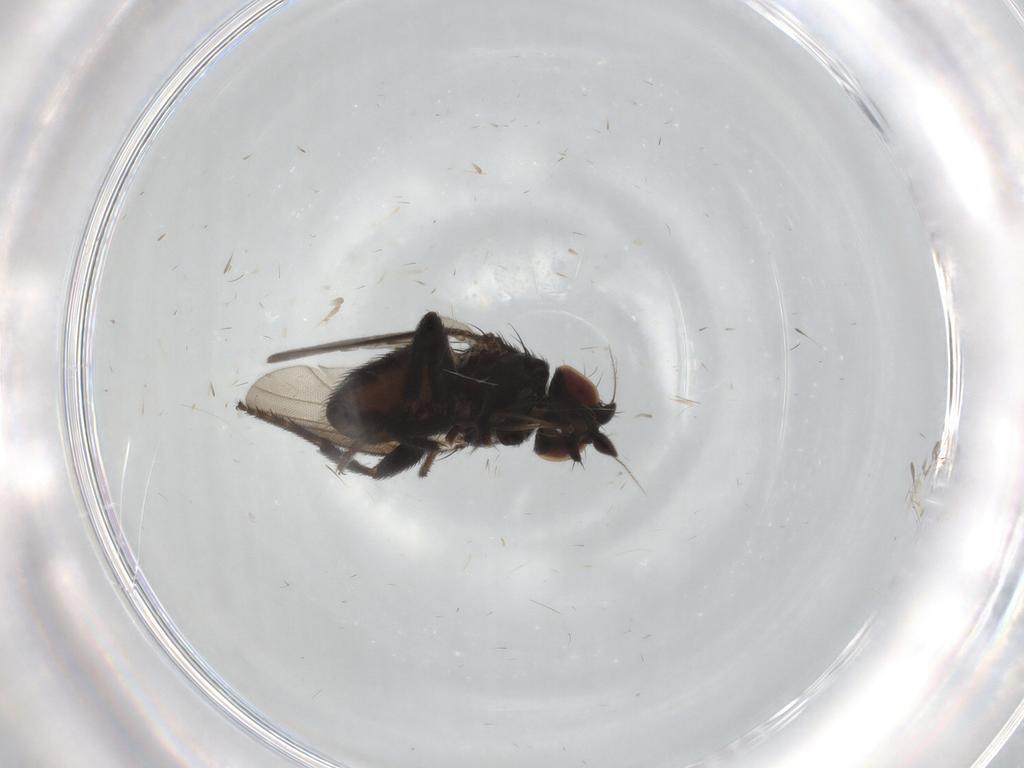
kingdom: Animalia
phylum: Arthropoda
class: Insecta
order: Diptera
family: Milichiidae
